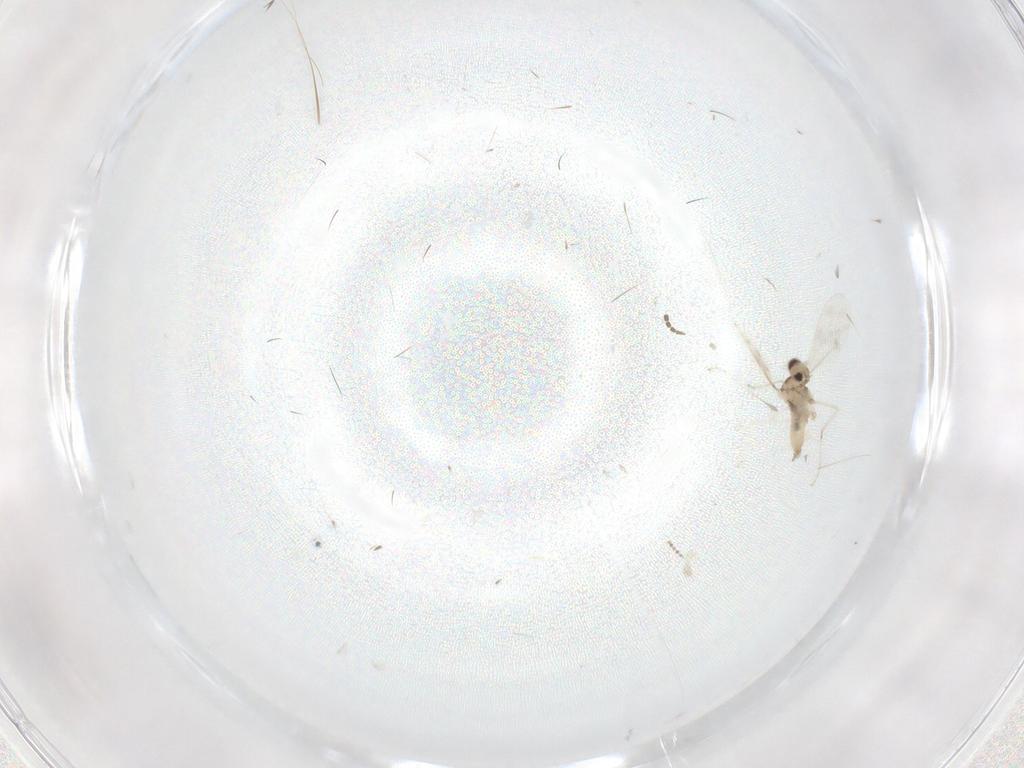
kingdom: Animalia
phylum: Arthropoda
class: Insecta
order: Diptera
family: Sciaridae
